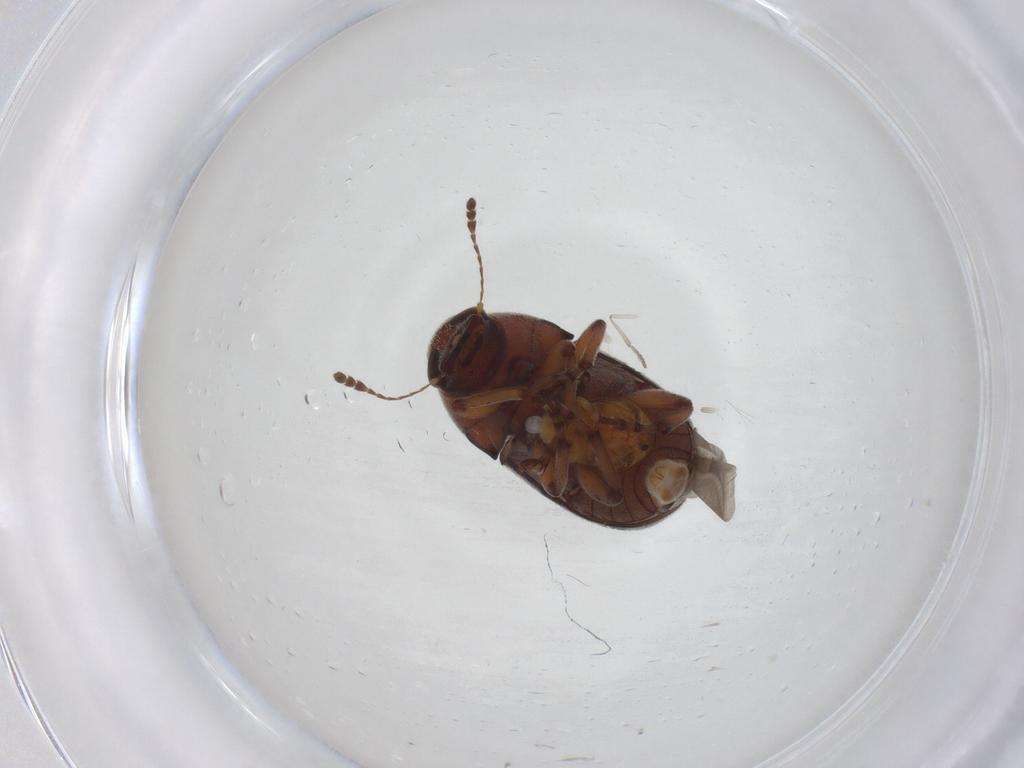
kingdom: Animalia
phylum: Arthropoda
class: Insecta
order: Coleoptera
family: Anthribidae
